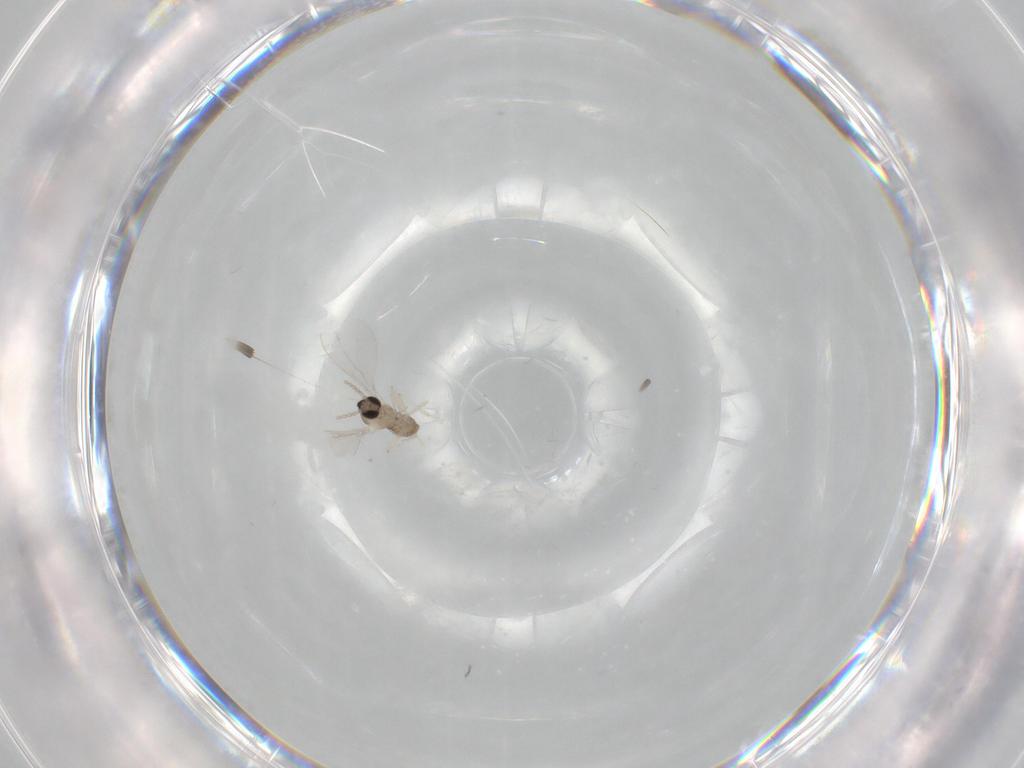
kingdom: Animalia
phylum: Arthropoda
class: Insecta
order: Diptera
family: Cecidomyiidae
